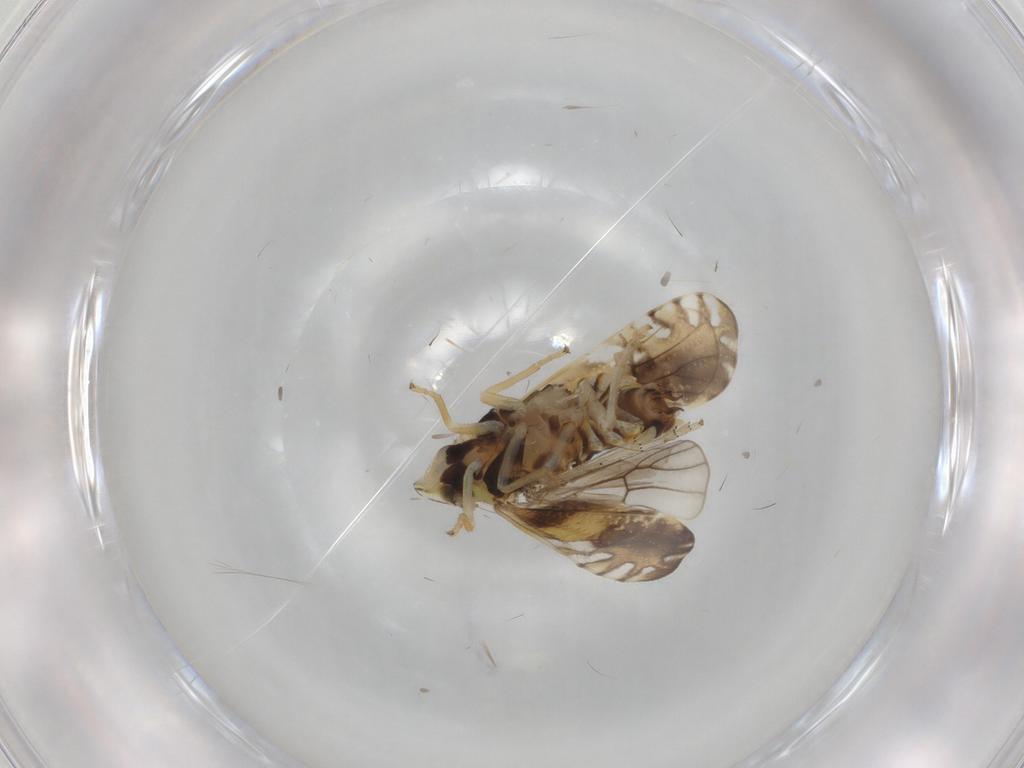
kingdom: Animalia
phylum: Arthropoda
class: Insecta
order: Hemiptera
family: Delphacidae
